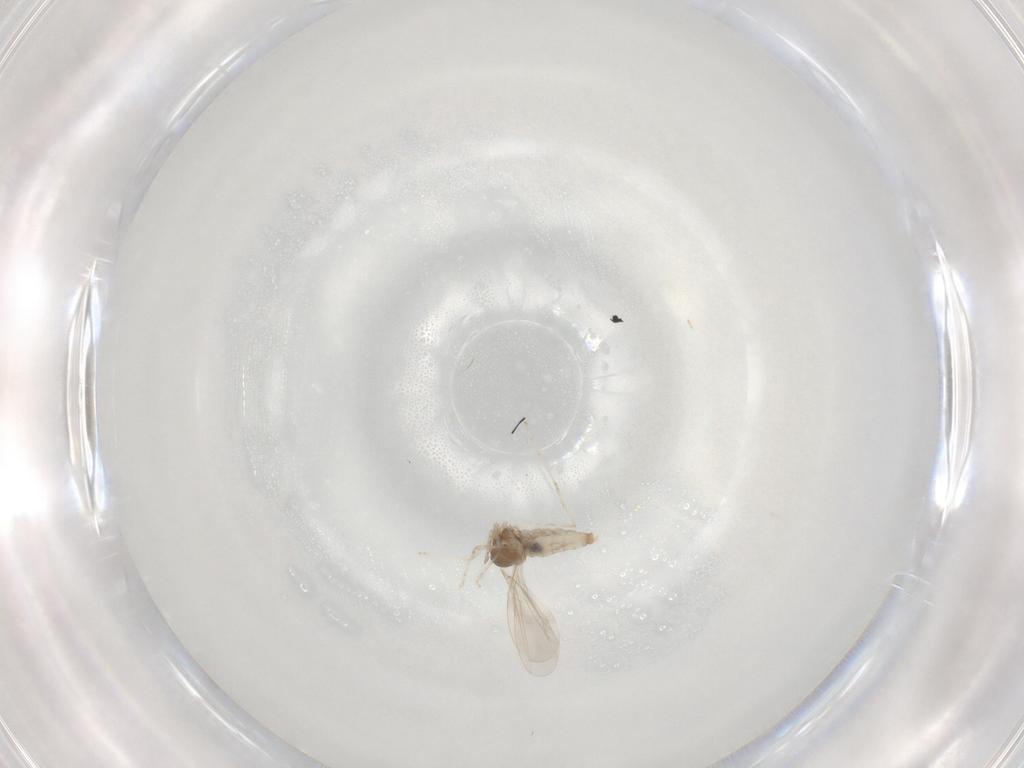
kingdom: Animalia
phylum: Arthropoda
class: Insecta
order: Diptera
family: Cecidomyiidae
